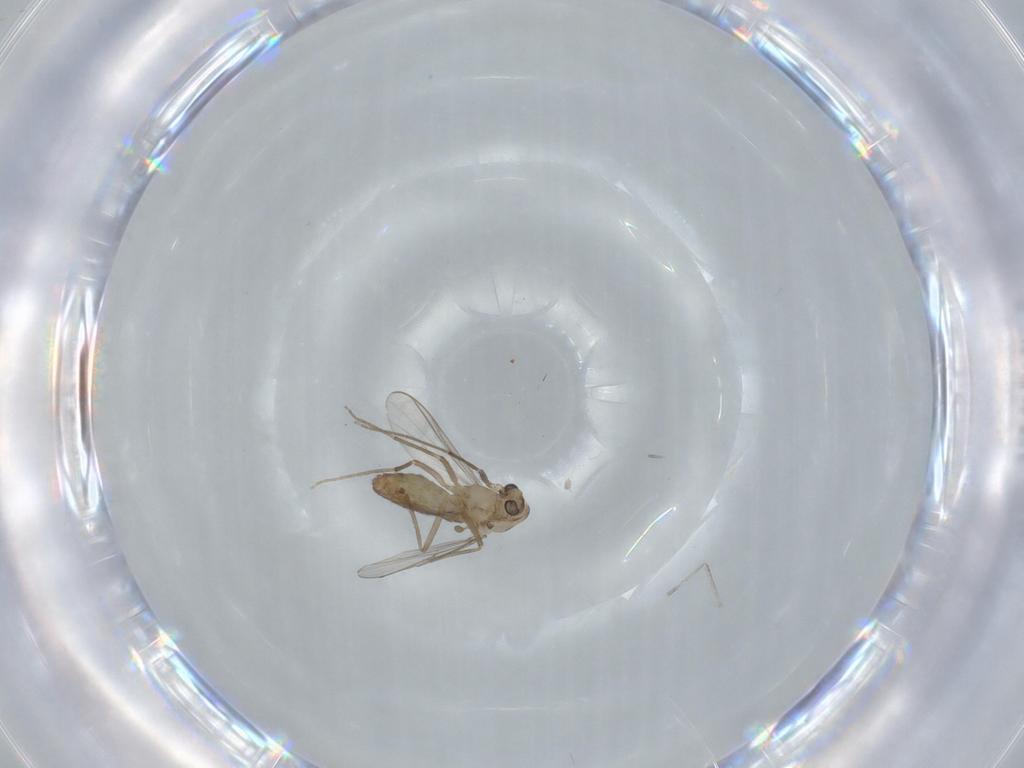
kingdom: Animalia
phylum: Arthropoda
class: Insecta
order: Diptera
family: Chironomidae
